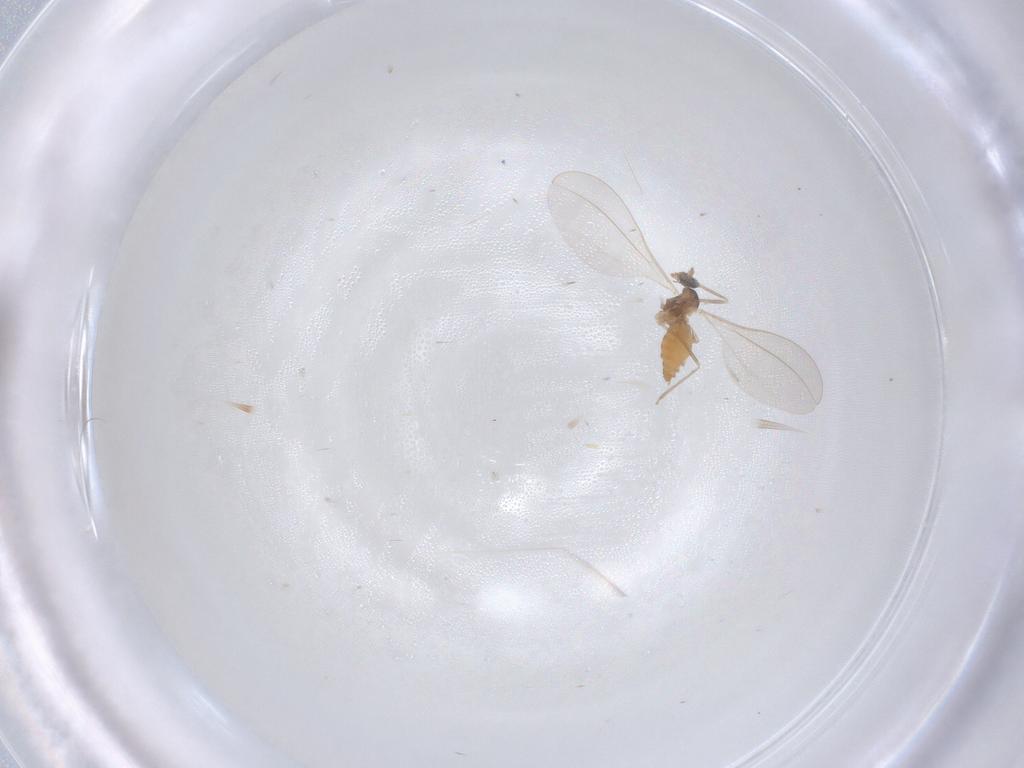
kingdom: Animalia
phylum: Arthropoda
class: Insecta
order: Diptera
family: Cecidomyiidae
